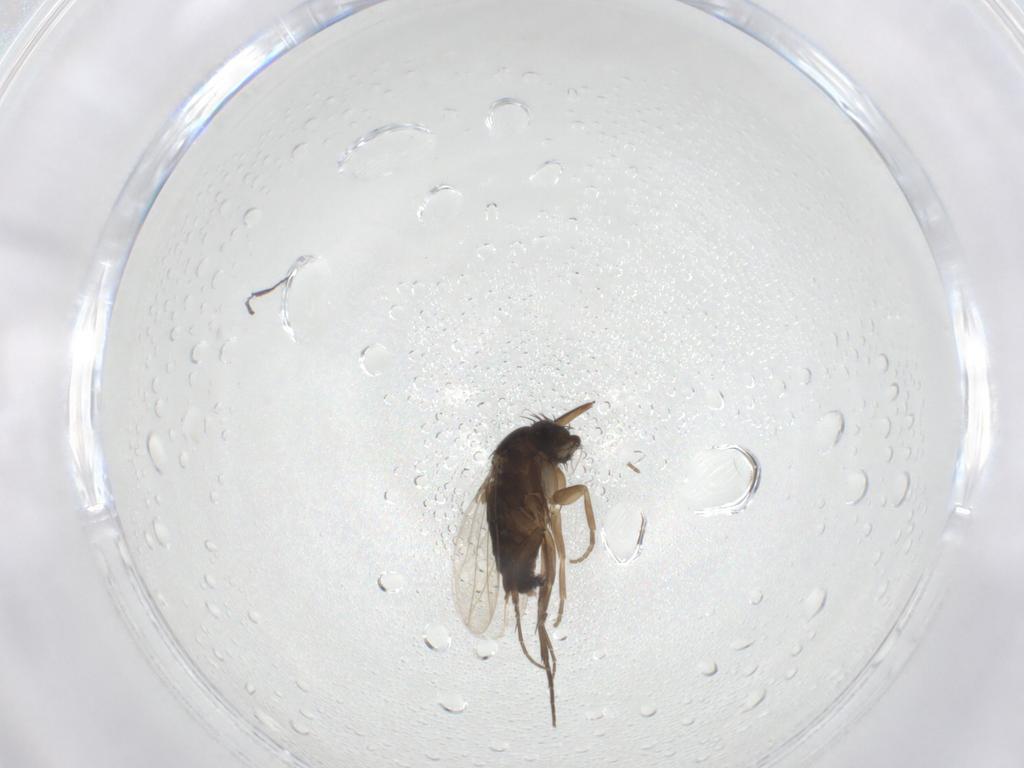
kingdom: Animalia
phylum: Arthropoda
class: Insecta
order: Diptera
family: Phoridae
